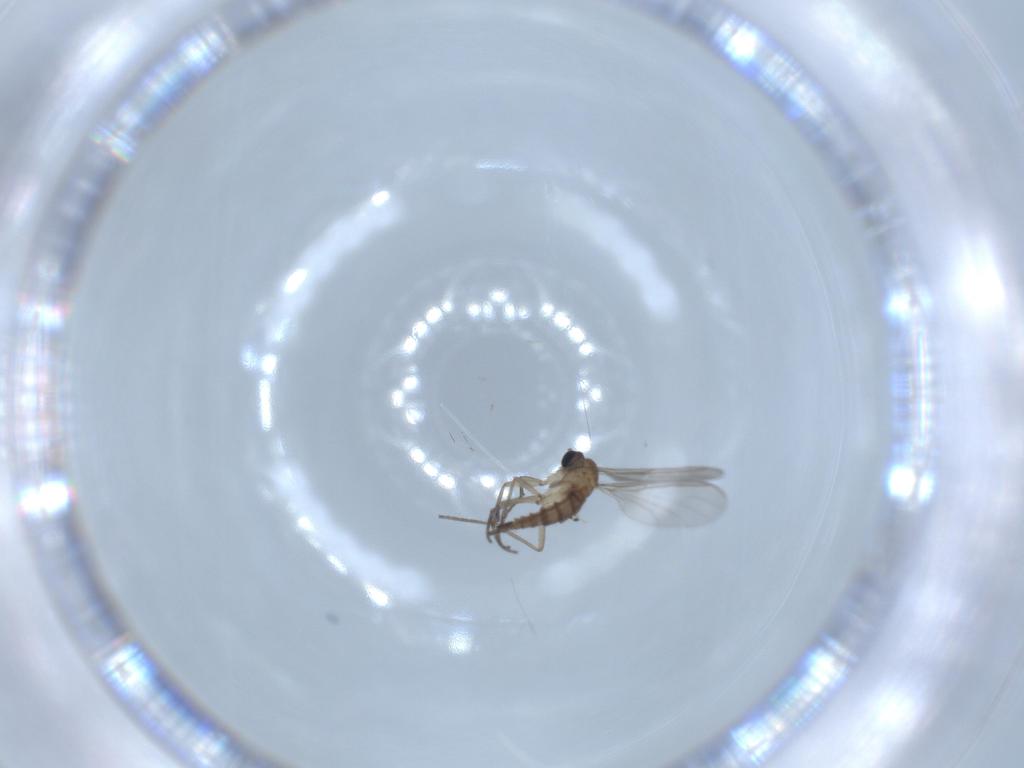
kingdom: Animalia
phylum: Arthropoda
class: Insecta
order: Diptera
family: Sciaridae
